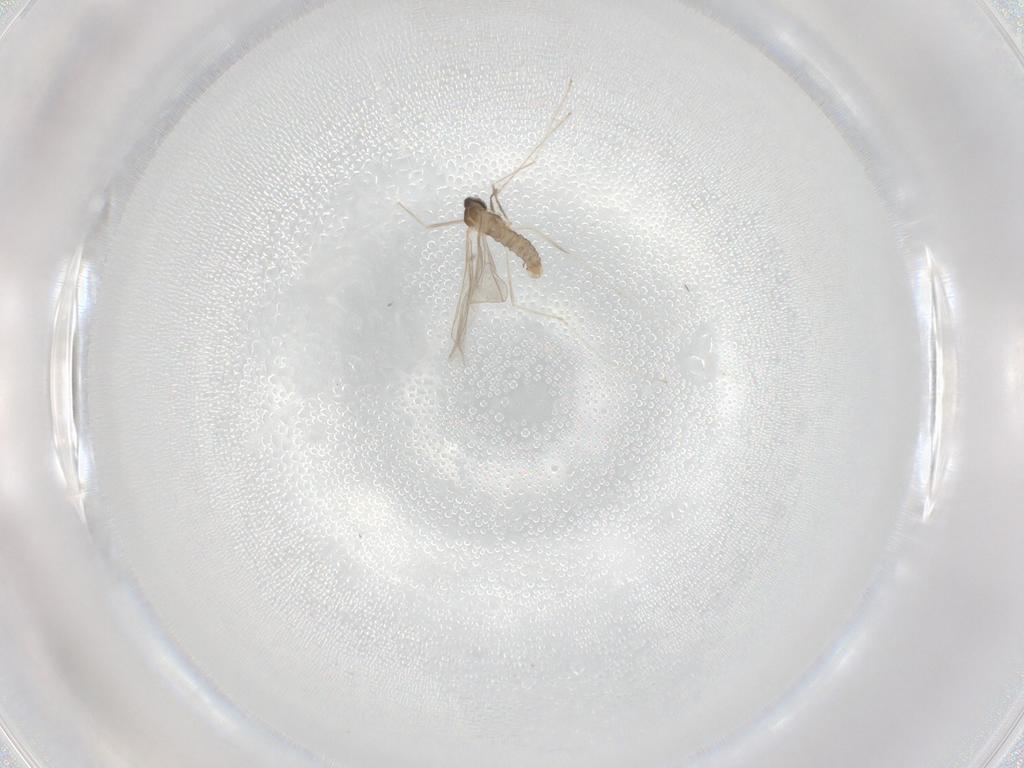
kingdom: Animalia
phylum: Arthropoda
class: Insecta
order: Diptera
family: Cecidomyiidae
